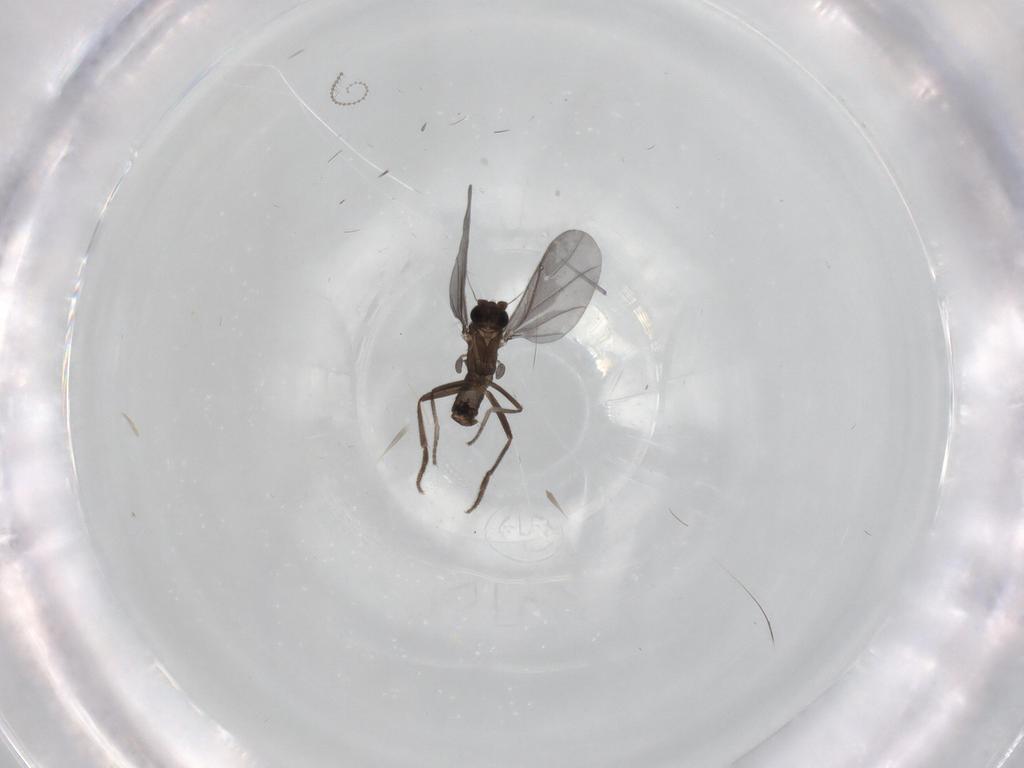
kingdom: Animalia
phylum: Arthropoda
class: Insecta
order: Diptera
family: Phoridae
